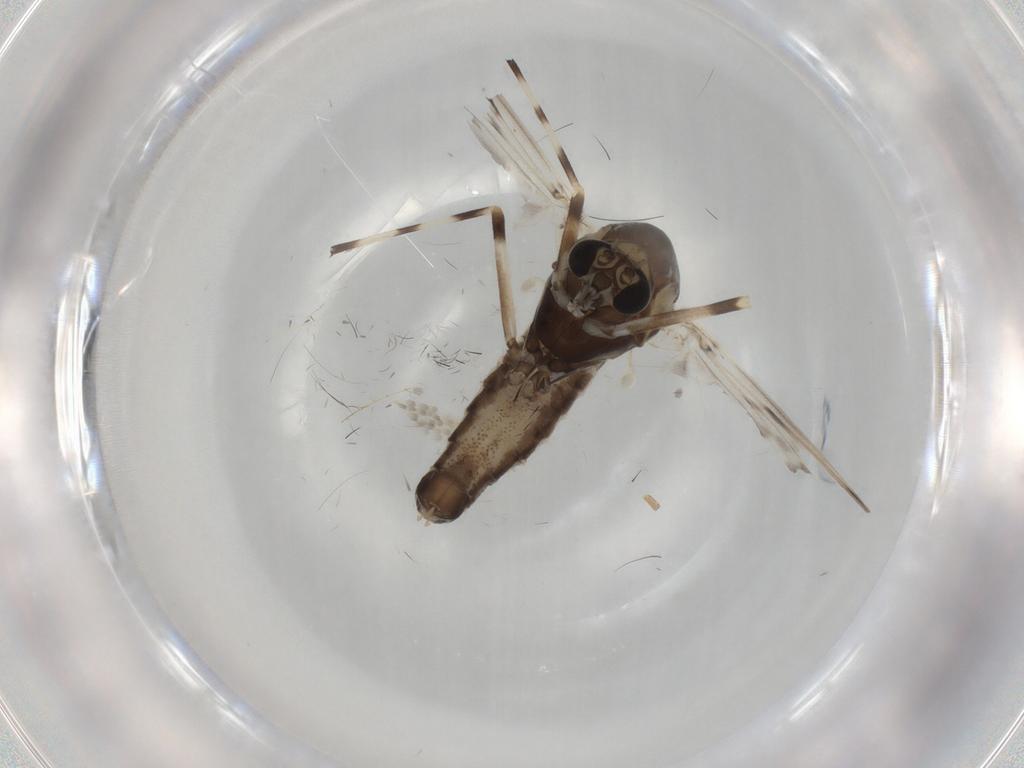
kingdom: Animalia
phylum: Arthropoda
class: Insecta
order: Diptera
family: Chironomidae
